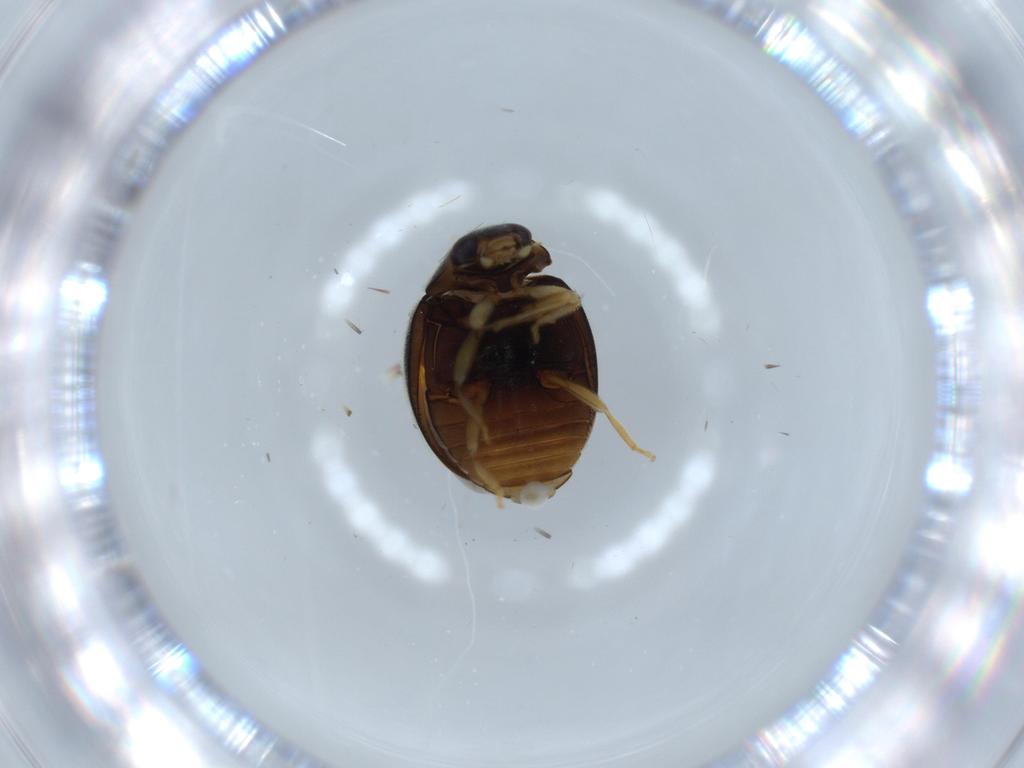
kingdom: Animalia
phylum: Arthropoda
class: Insecta
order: Coleoptera
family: Coccinellidae
